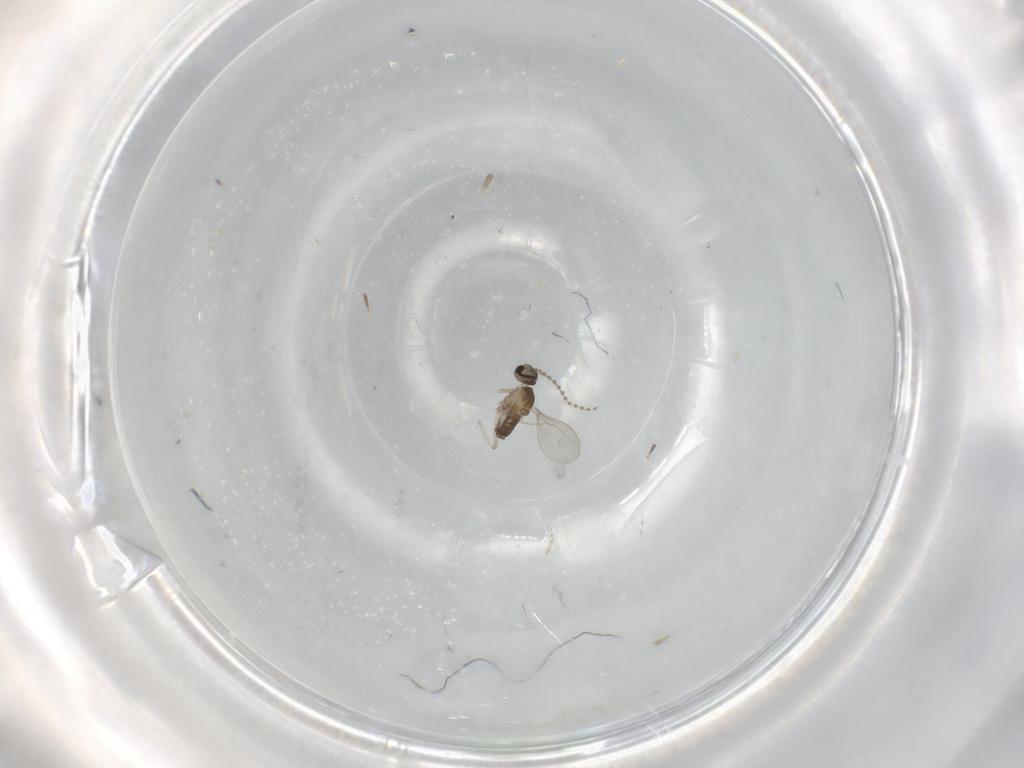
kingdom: Animalia
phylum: Arthropoda
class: Insecta
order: Diptera
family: Cecidomyiidae
